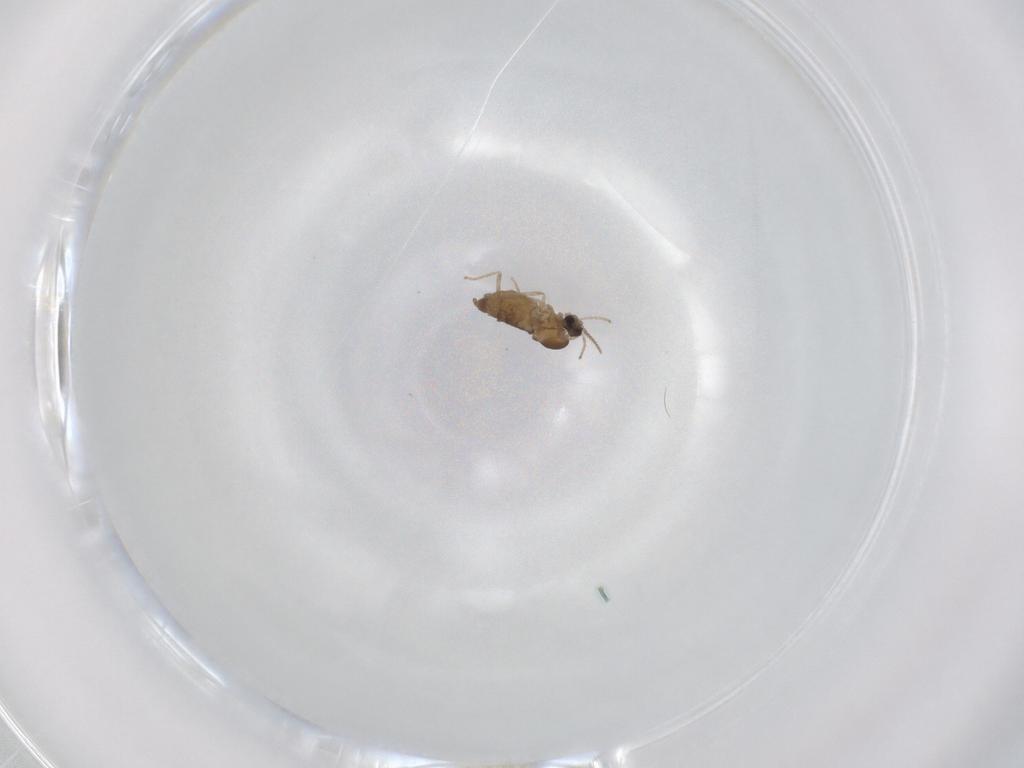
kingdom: Animalia
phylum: Arthropoda
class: Insecta
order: Diptera
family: Cecidomyiidae
